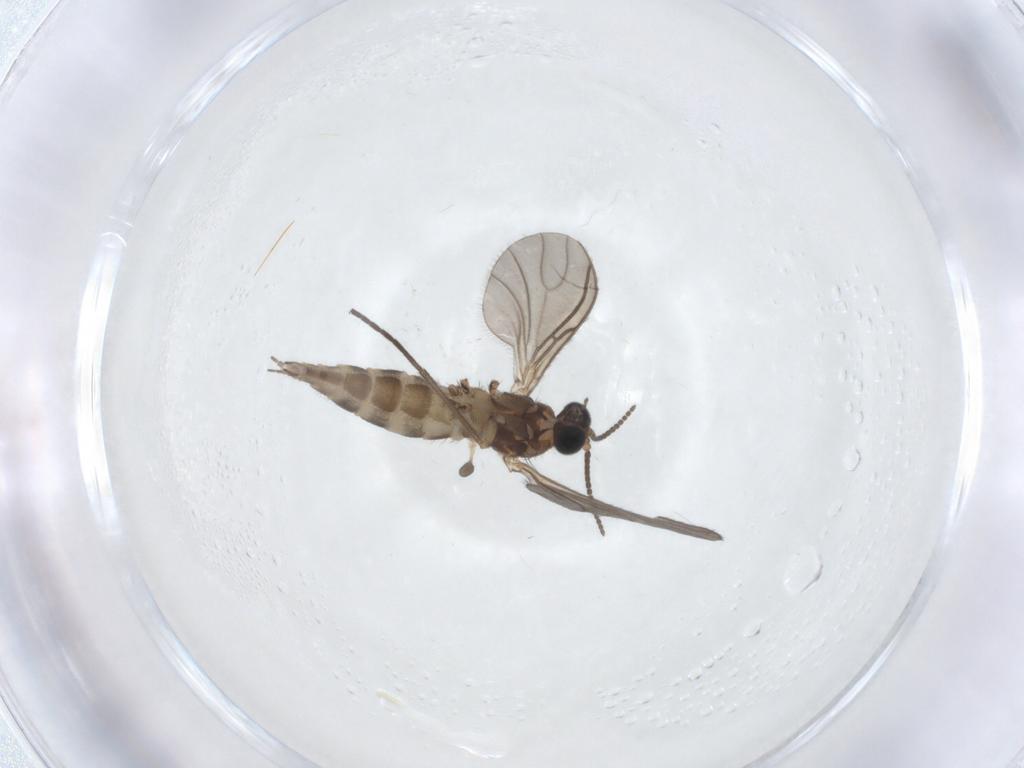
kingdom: Animalia
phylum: Arthropoda
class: Insecta
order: Diptera
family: Sciaridae
